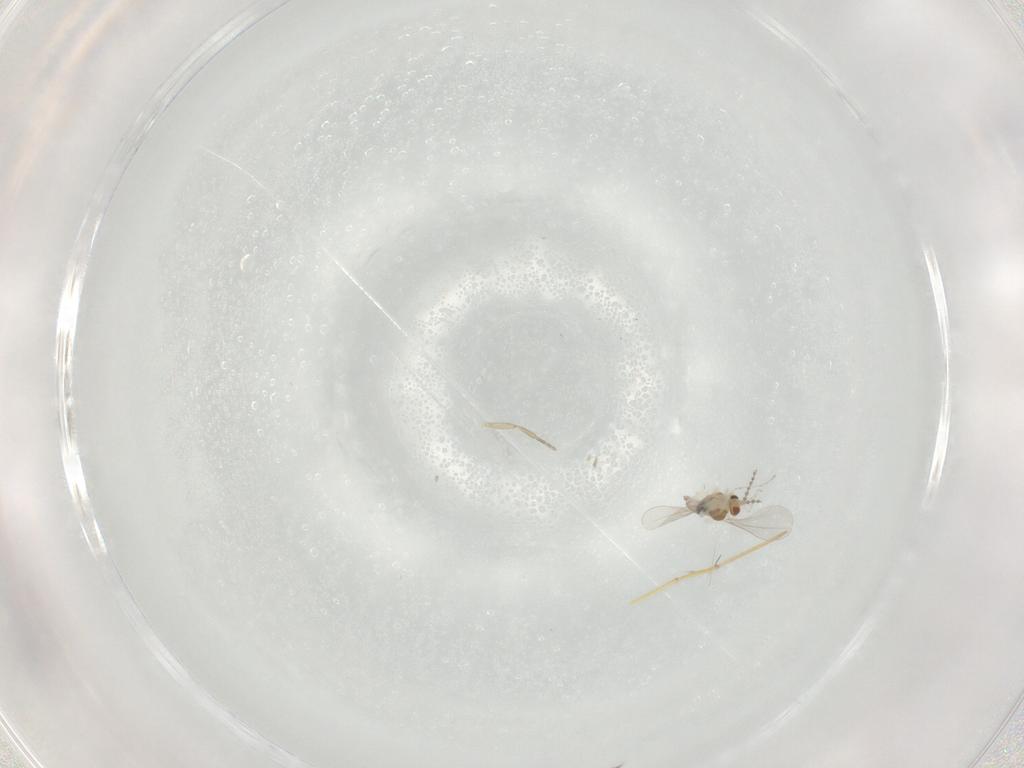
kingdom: Animalia
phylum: Arthropoda
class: Insecta
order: Diptera
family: Cecidomyiidae
